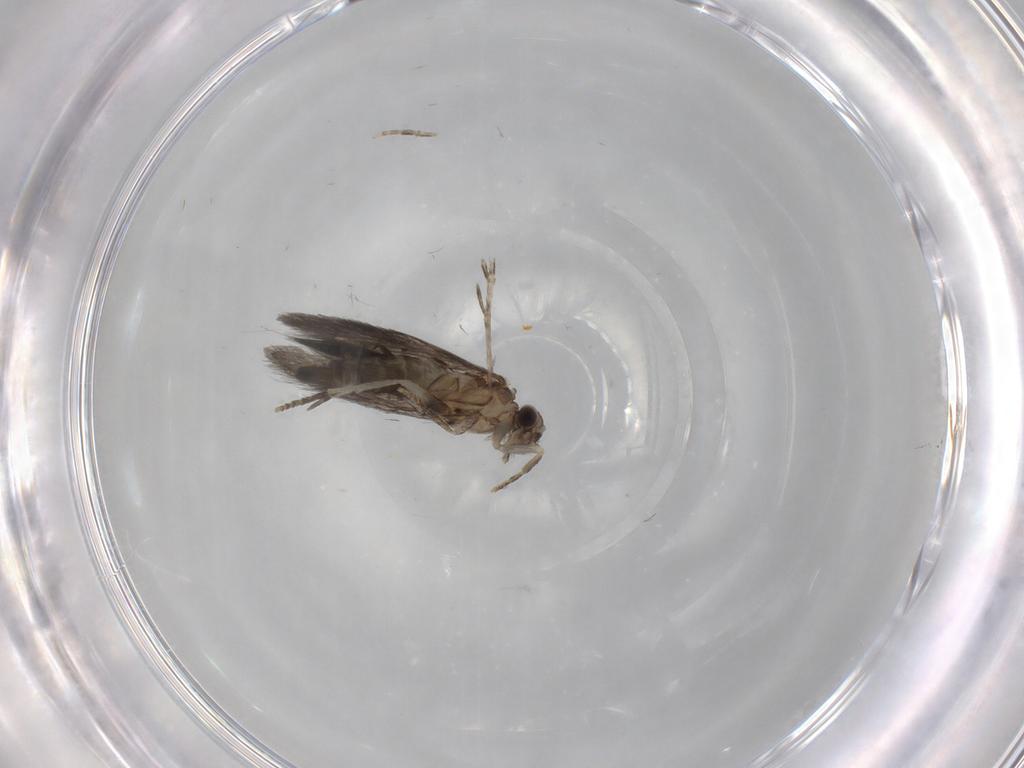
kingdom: Animalia
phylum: Arthropoda
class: Insecta
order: Trichoptera
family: Hydroptilidae
